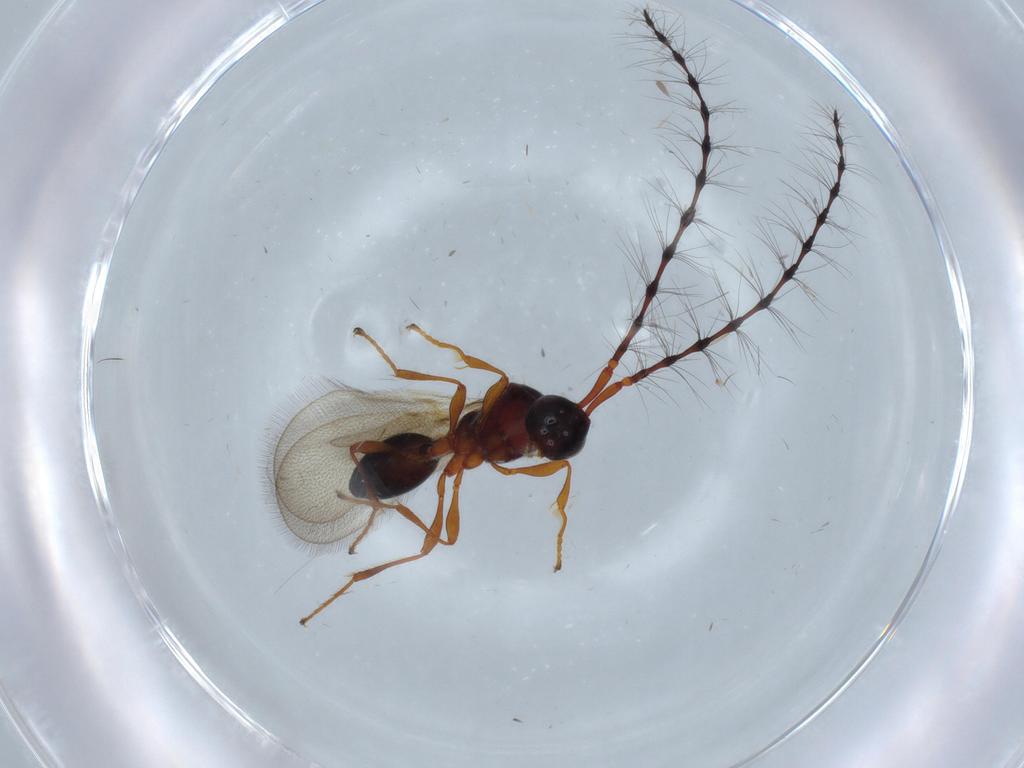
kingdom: Animalia
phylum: Arthropoda
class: Insecta
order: Hymenoptera
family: Diapriidae
